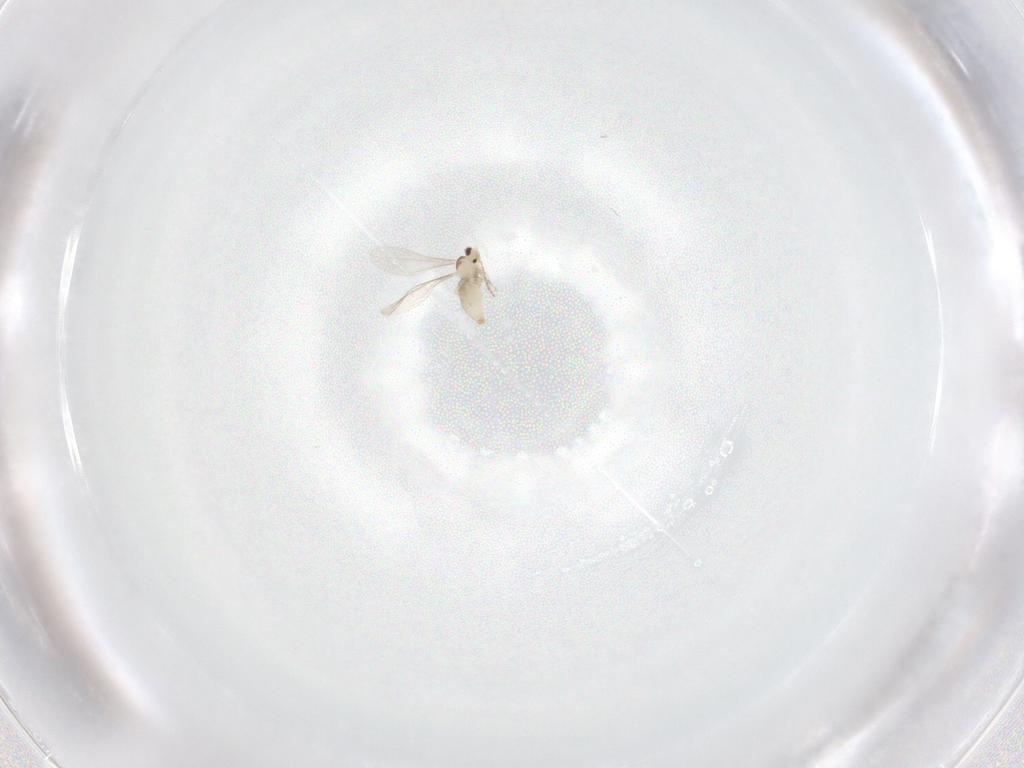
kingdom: Animalia
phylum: Arthropoda
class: Insecta
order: Diptera
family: Cecidomyiidae
